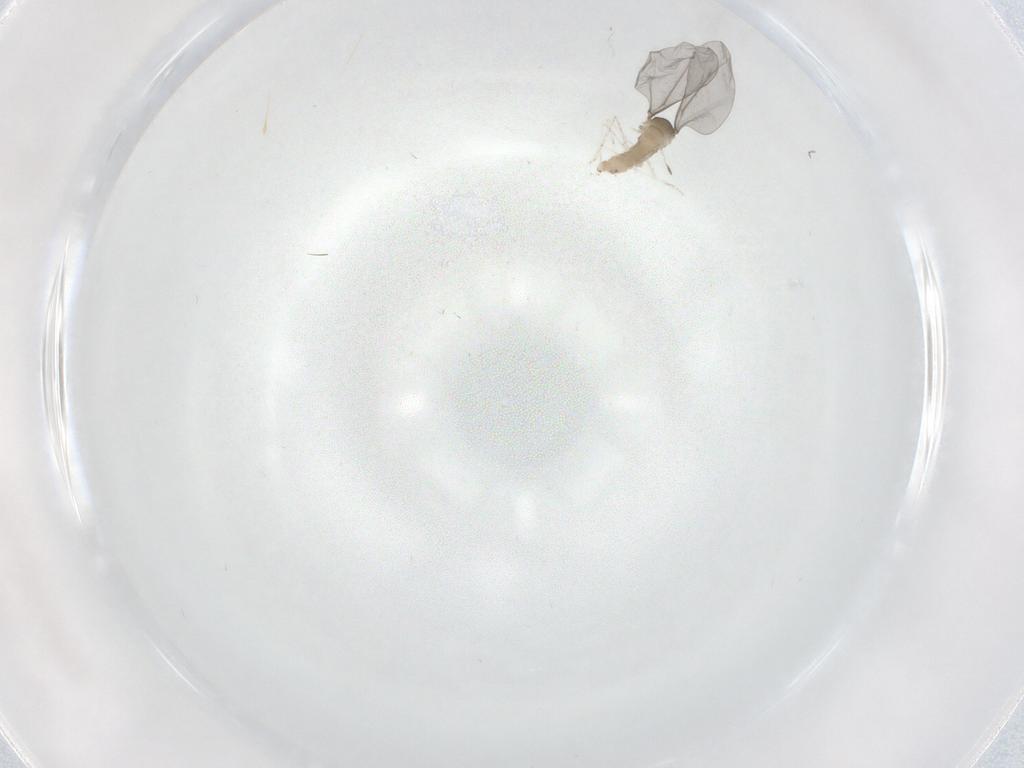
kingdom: Animalia
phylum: Arthropoda
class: Insecta
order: Diptera
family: Cecidomyiidae
